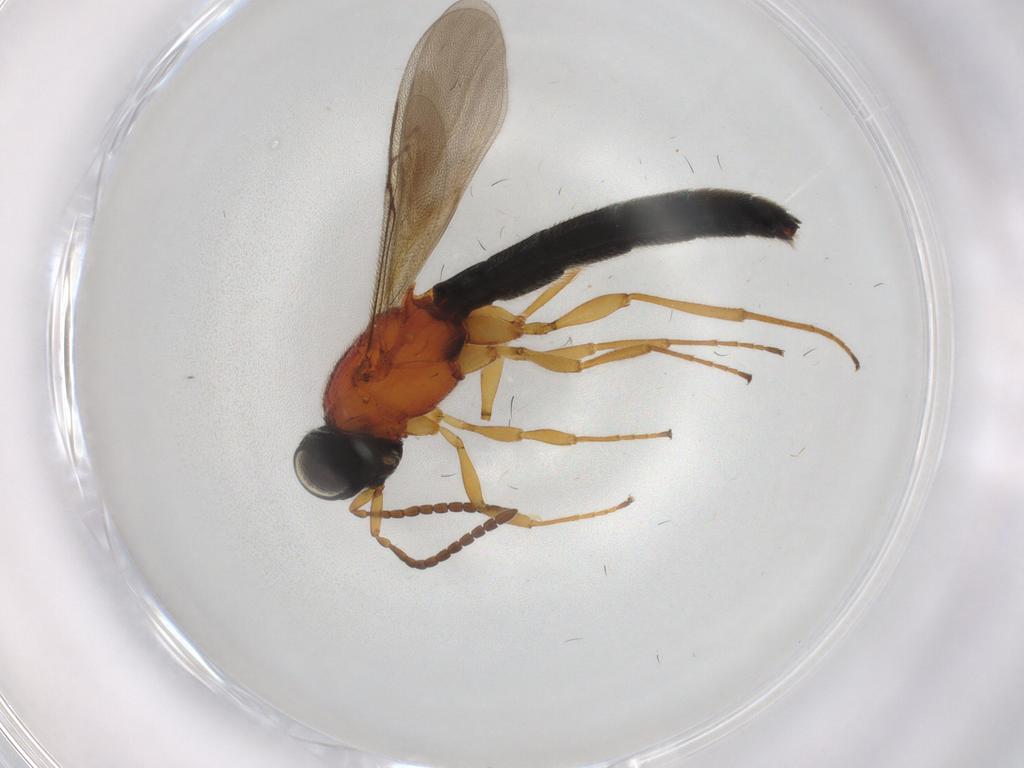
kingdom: Animalia
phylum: Arthropoda
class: Insecta
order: Hymenoptera
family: Scelionidae
